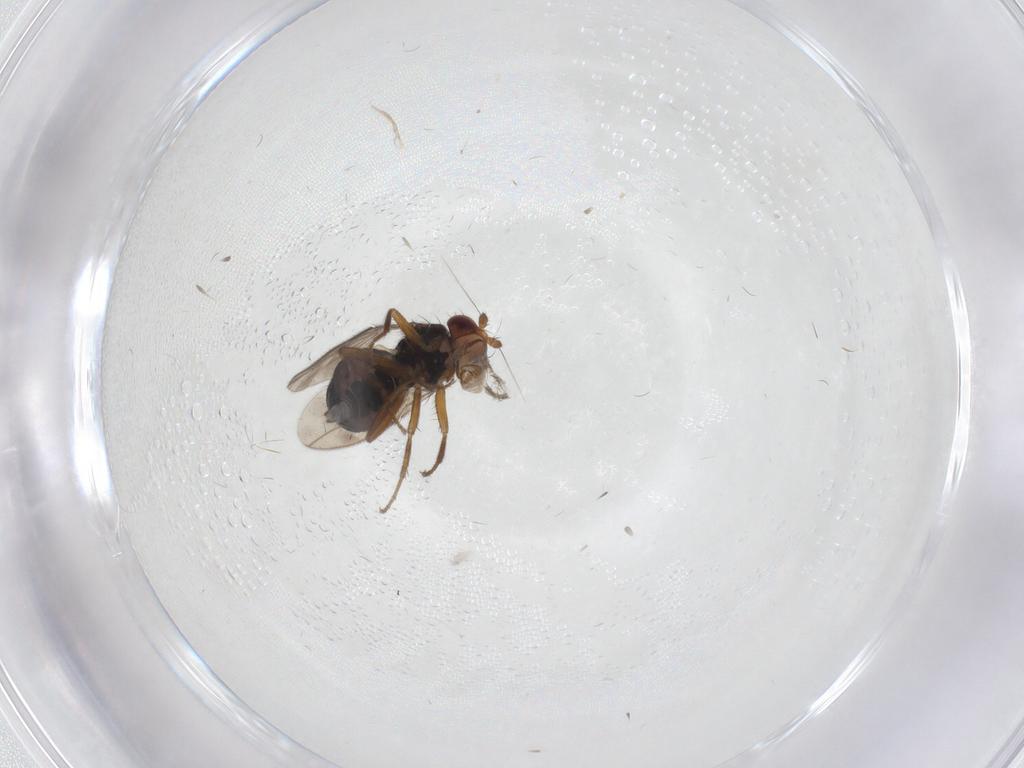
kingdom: Animalia
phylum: Arthropoda
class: Insecta
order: Diptera
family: Sphaeroceridae
